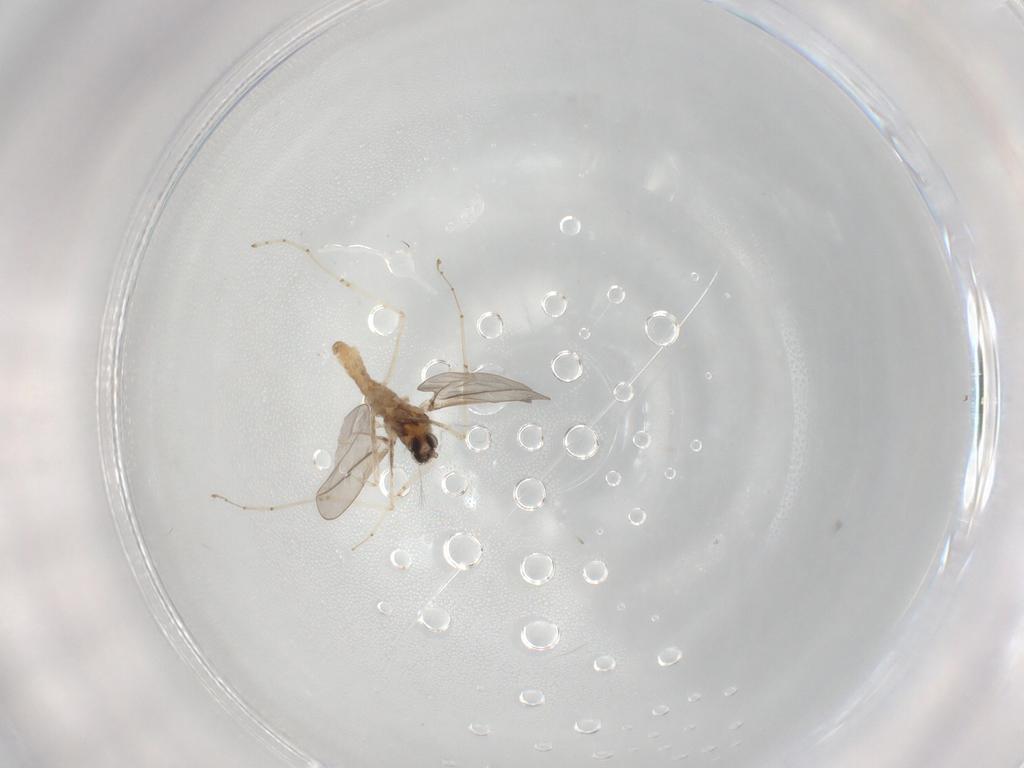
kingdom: Animalia
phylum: Arthropoda
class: Insecta
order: Diptera
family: Cecidomyiidae
